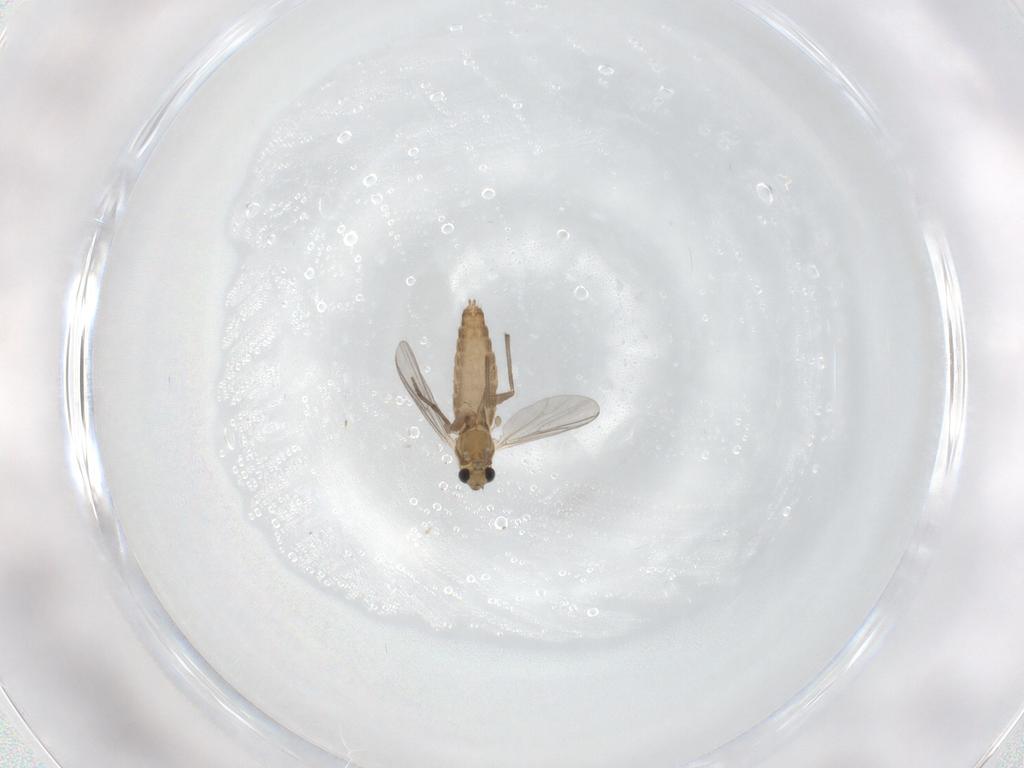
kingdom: Animalia
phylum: Arthropoda
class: Insecta
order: Diptera
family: Chironomidae
